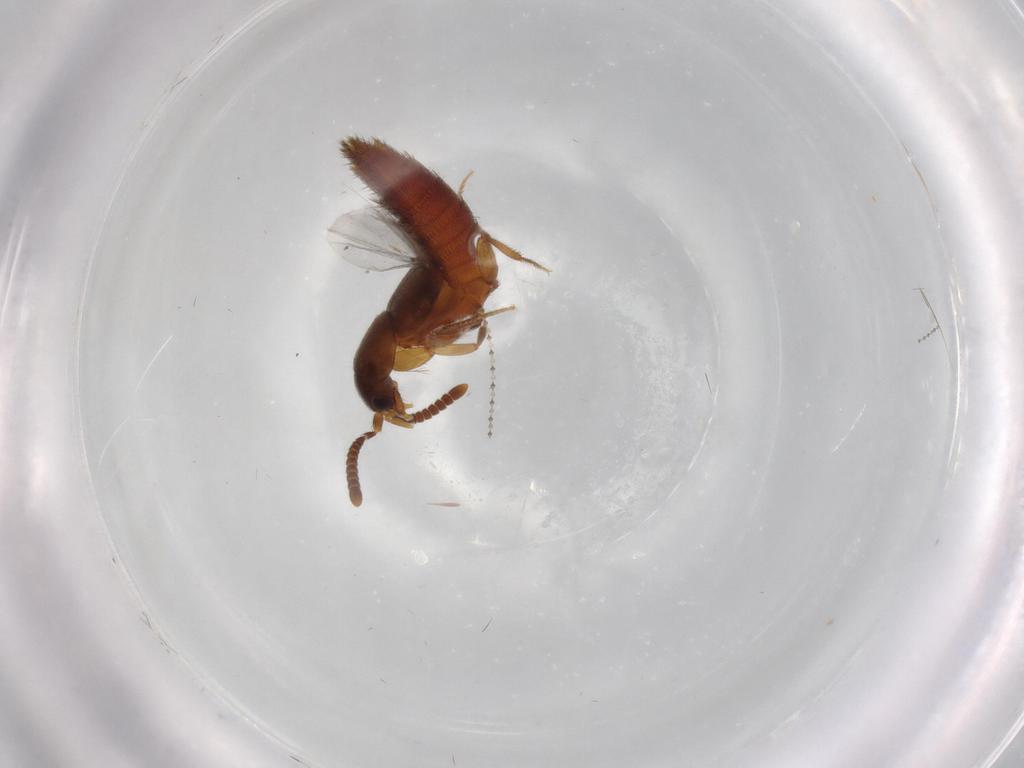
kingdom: Animalia
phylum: Arthropoda
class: Insecta
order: Coleoptera
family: Staphylinidae
